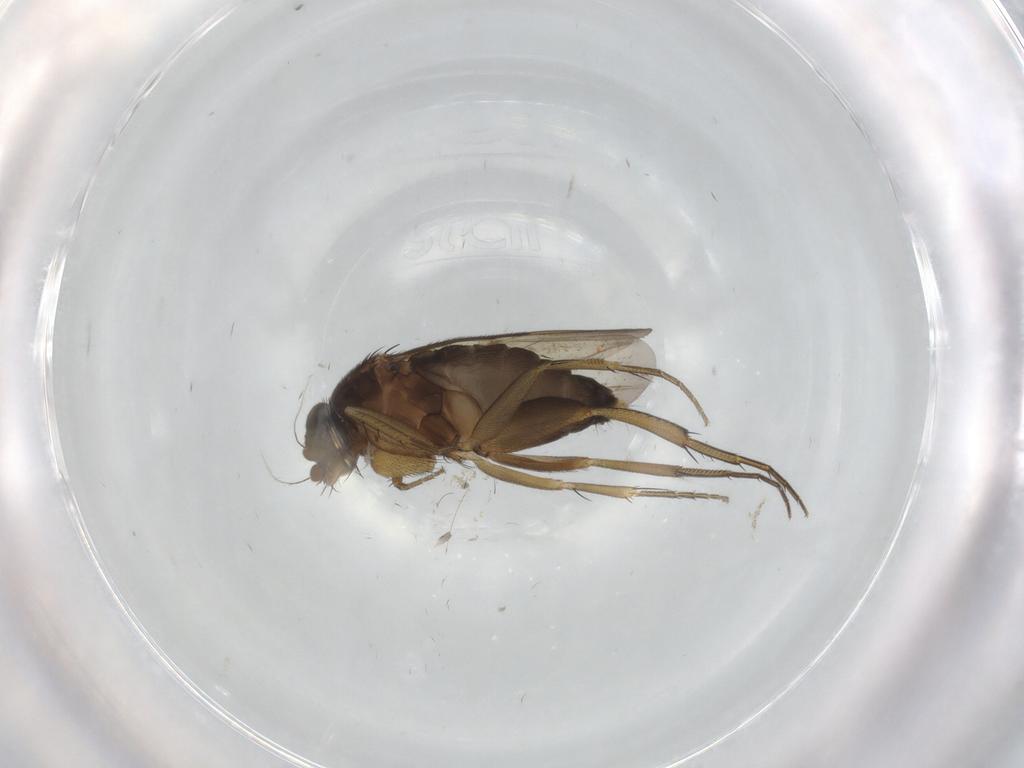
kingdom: Animalia
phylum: Arthropoda
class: Insecta
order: Diptera
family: Phoridae
